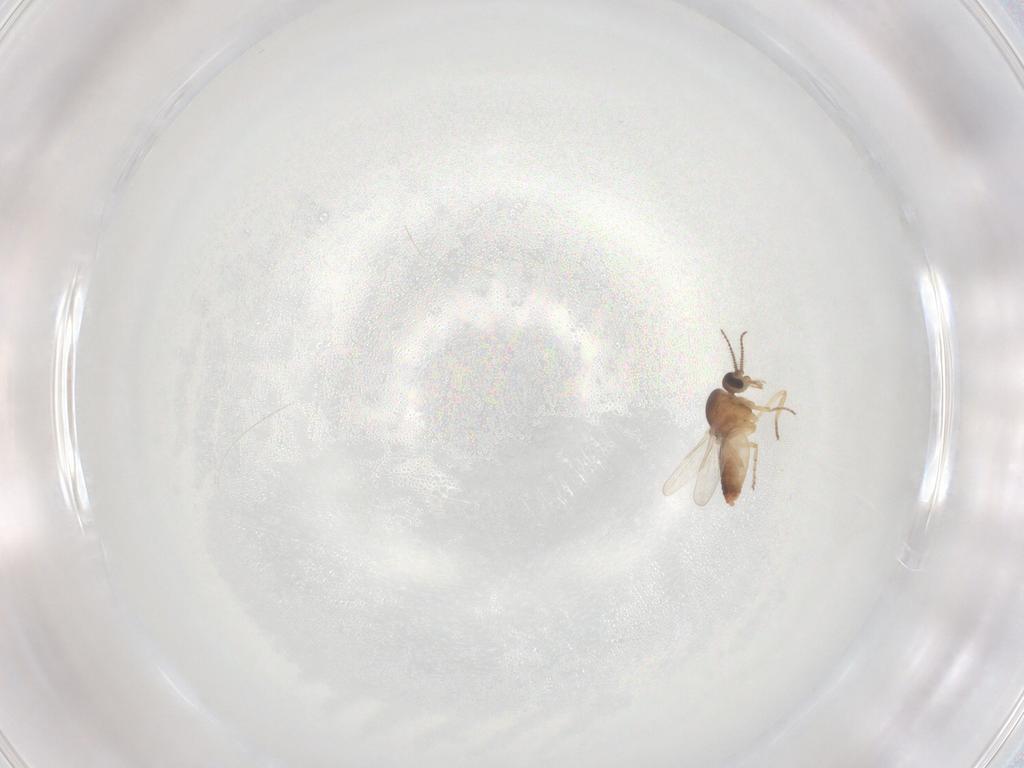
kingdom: Animalia
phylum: Arthropoda
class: Insecta
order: Diptera
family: Ceratopogonidae
